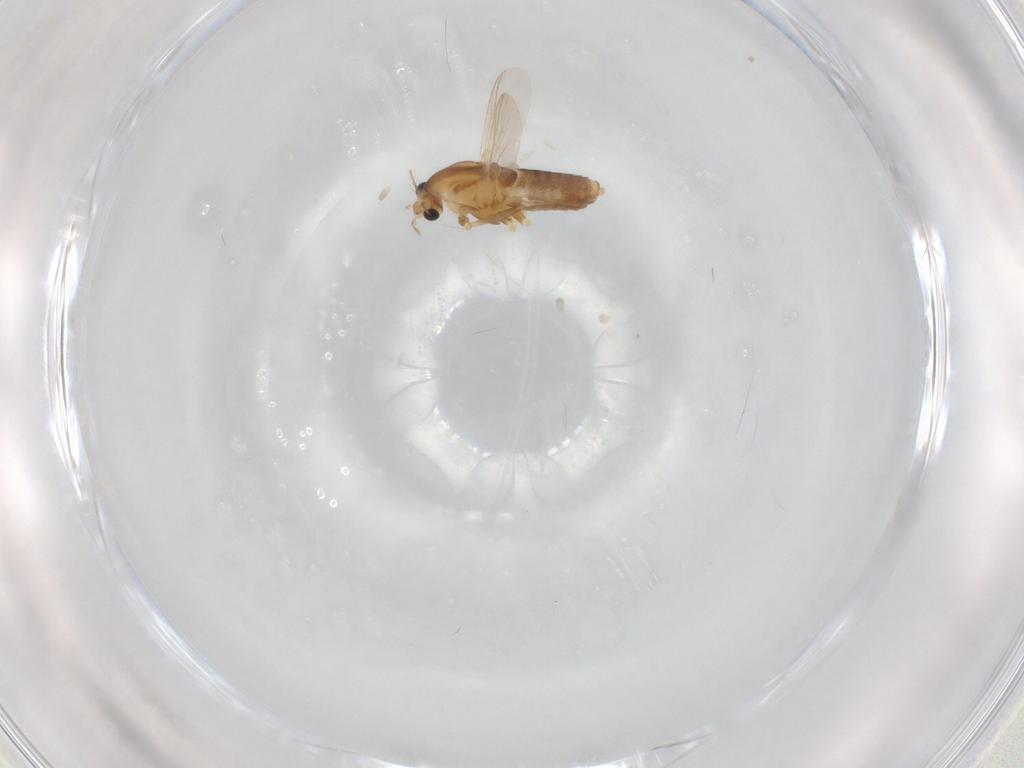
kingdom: Animalia
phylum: Arthropoda
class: Insecta
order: Diptera
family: Cecidomyiidae
